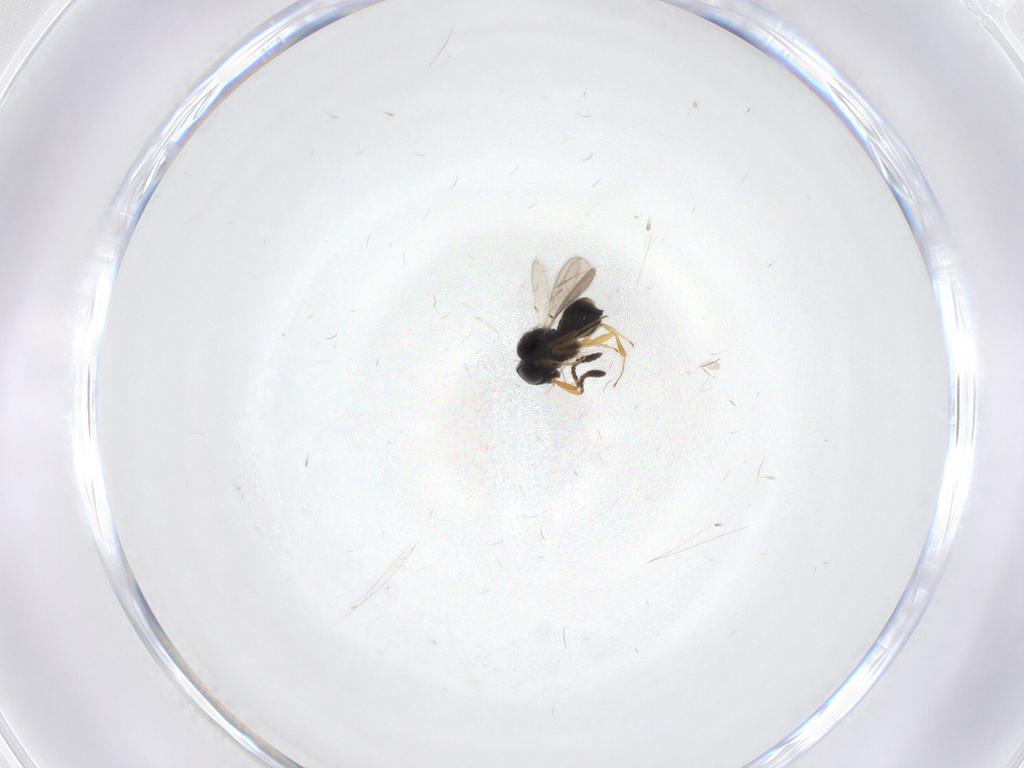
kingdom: Animalia
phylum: Arthropoda
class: Insecta
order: Hymenoptera
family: Scelionidae
